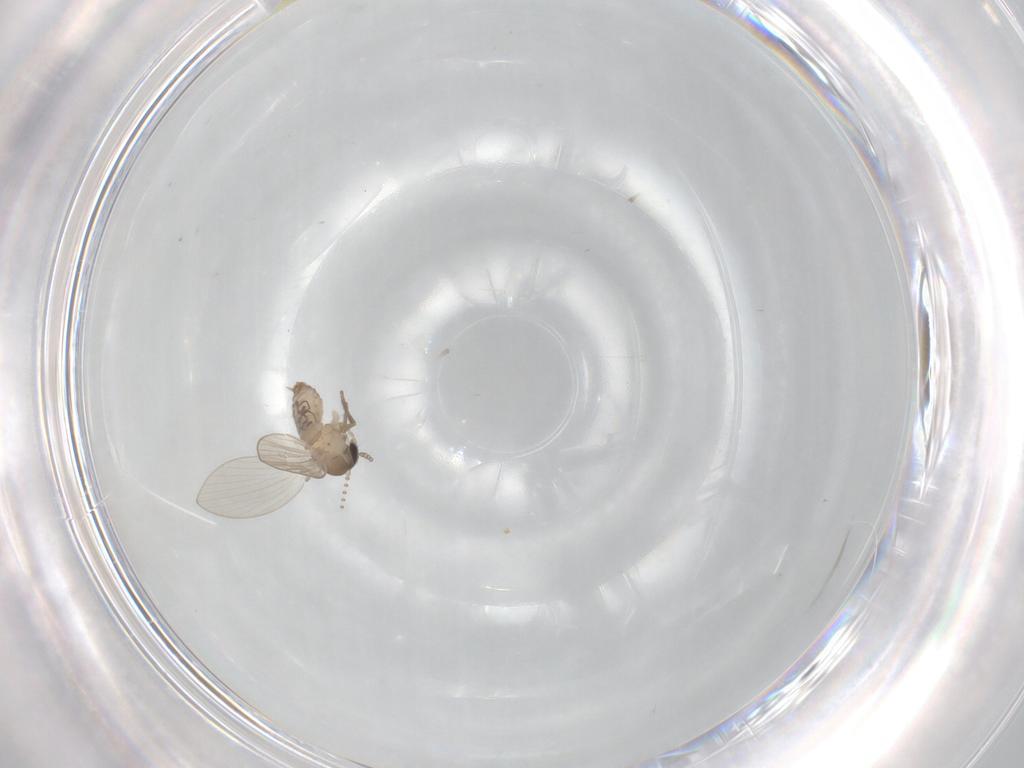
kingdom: Animalia
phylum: Arthropoda
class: Insecta
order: Diptera
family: Psychodidae
